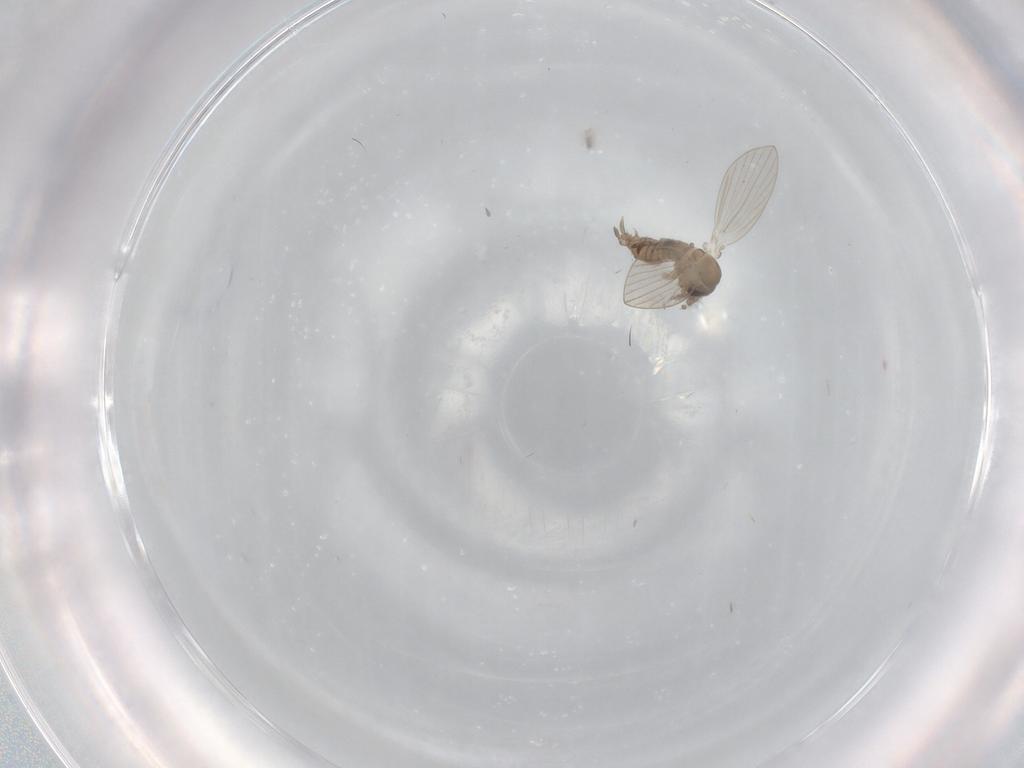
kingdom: Animalia
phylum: Arthropoda
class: Insecta
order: Diptera
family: Psychodidae
